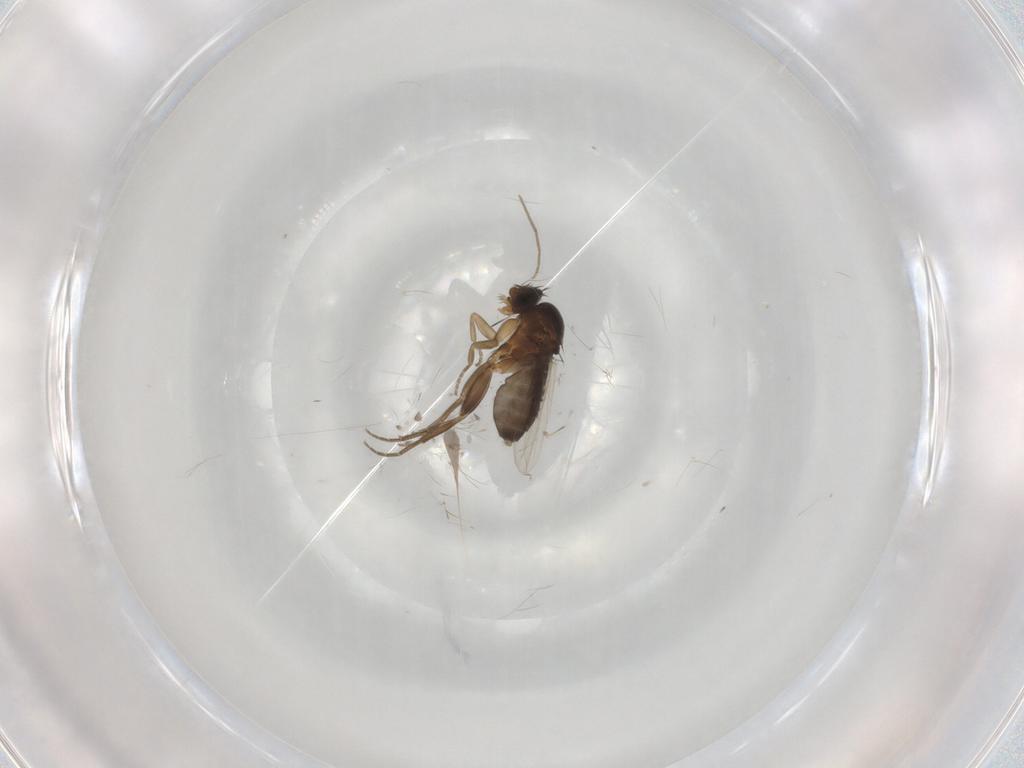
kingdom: Animalia
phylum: Arthropoda
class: Insecta
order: Diptera
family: Phoridae
